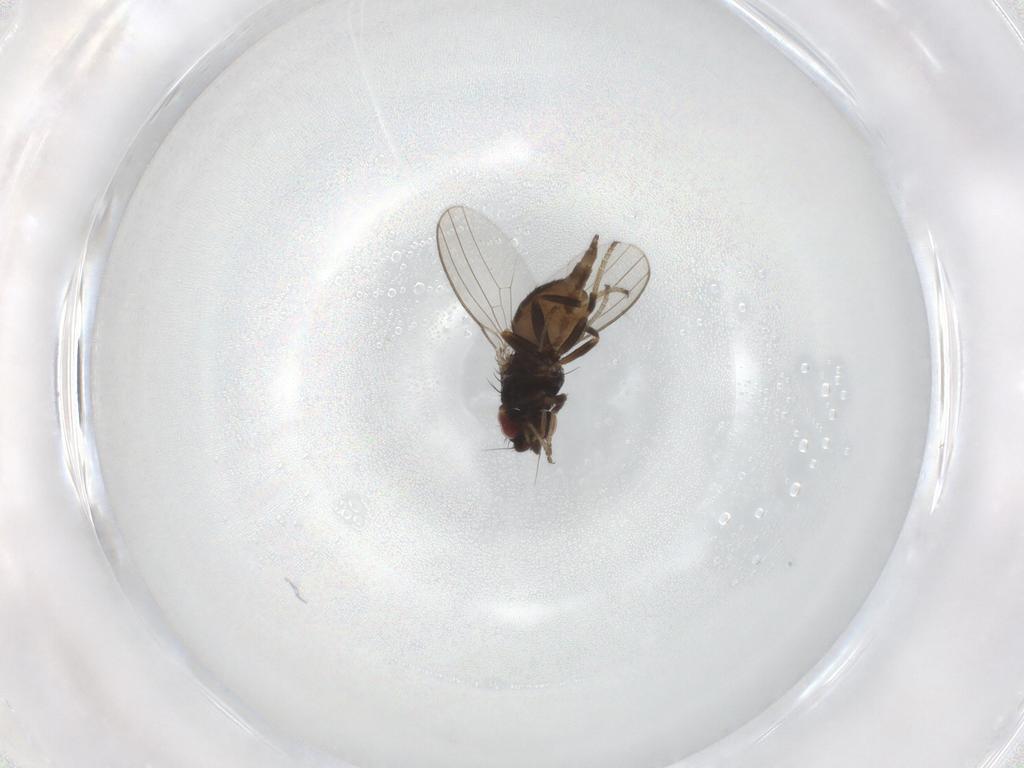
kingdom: Animalia
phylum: Arthropoda
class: Insecta
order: Diptera
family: Milichiidae
